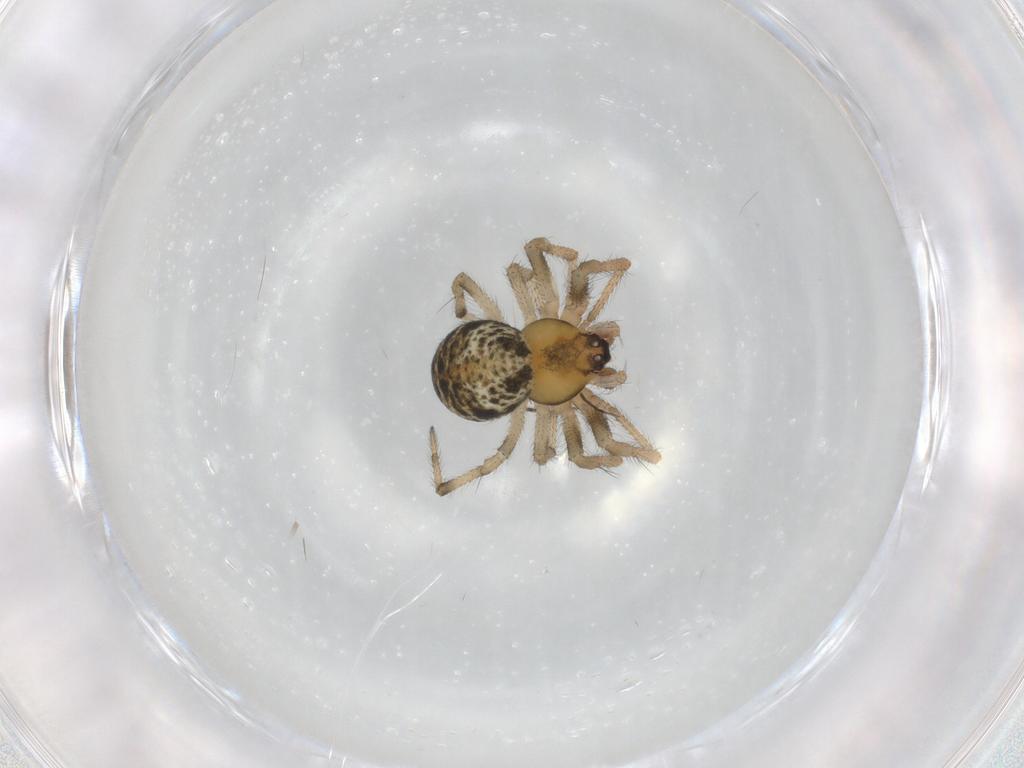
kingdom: Animalia
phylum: Arthropoda
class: Arachnida
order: Araneae
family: Theridiidae
